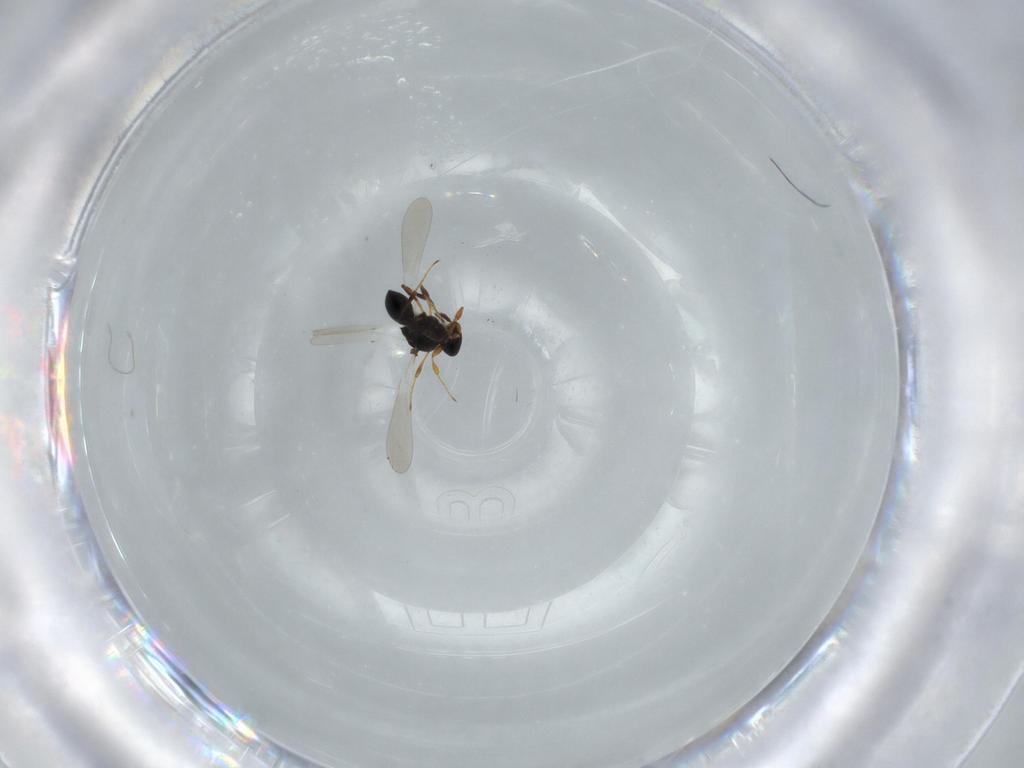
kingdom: Animalia
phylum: Arthropoda
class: Insecta
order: Hymenoptera
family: Platygastridae
